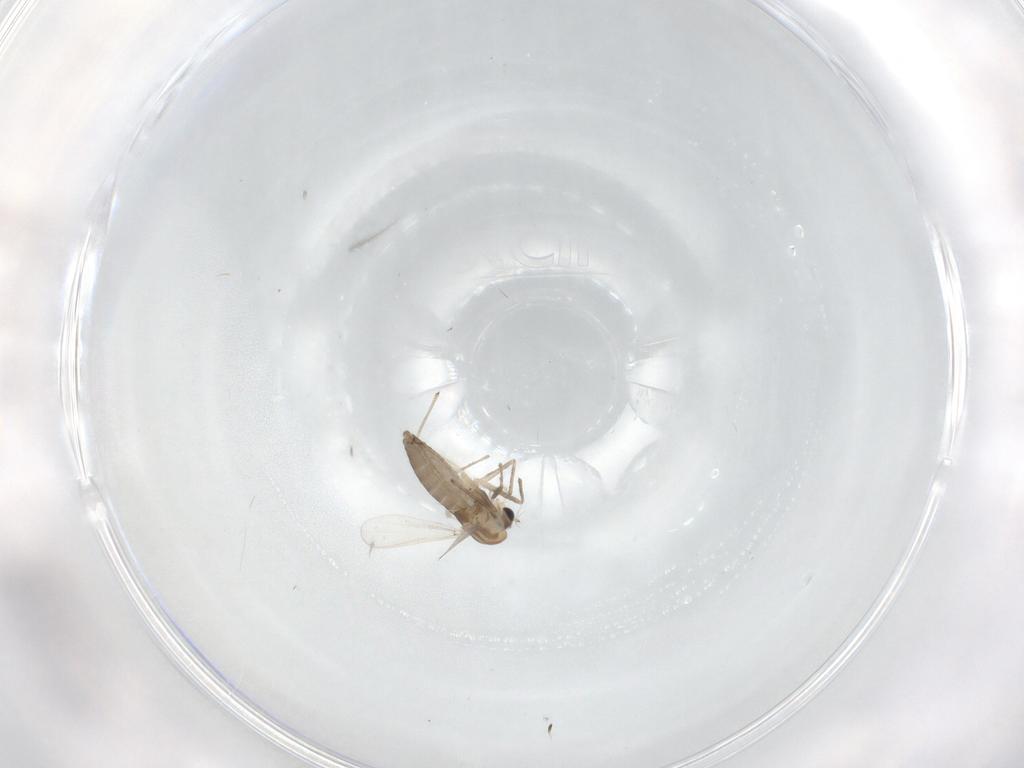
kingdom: Animalia
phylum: Arthropoda
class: Insecta
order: Diptera
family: Chironomidae
